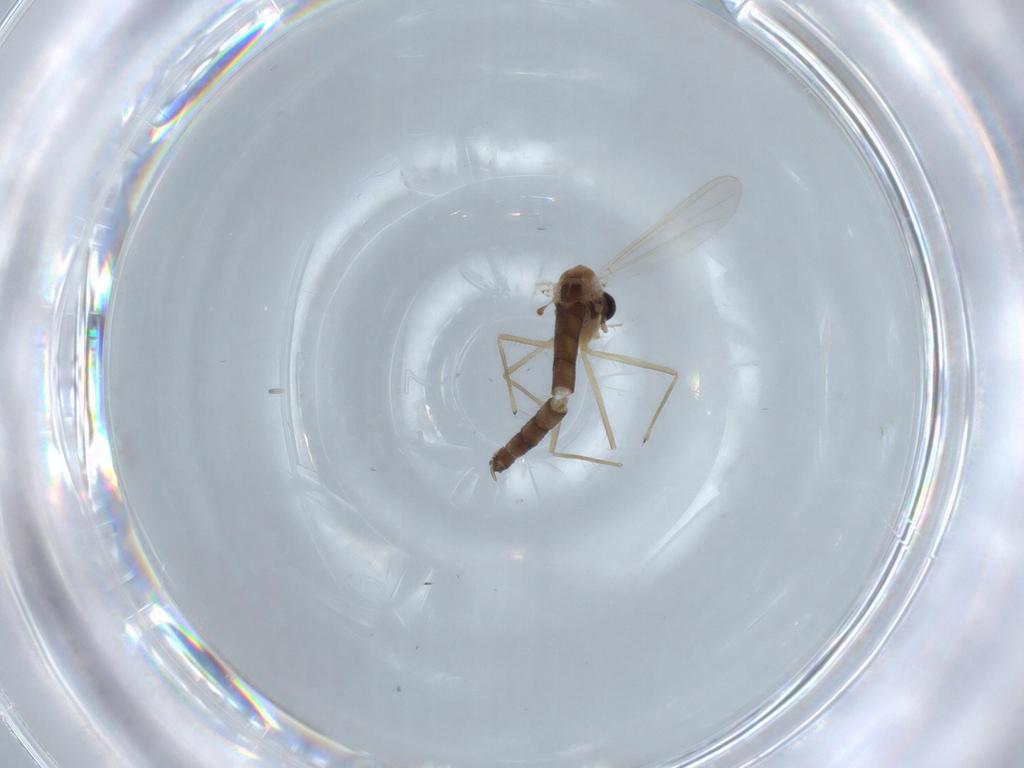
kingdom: Animalia
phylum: Arthropoda
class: Insecta
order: Diptera
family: Chironomidae
